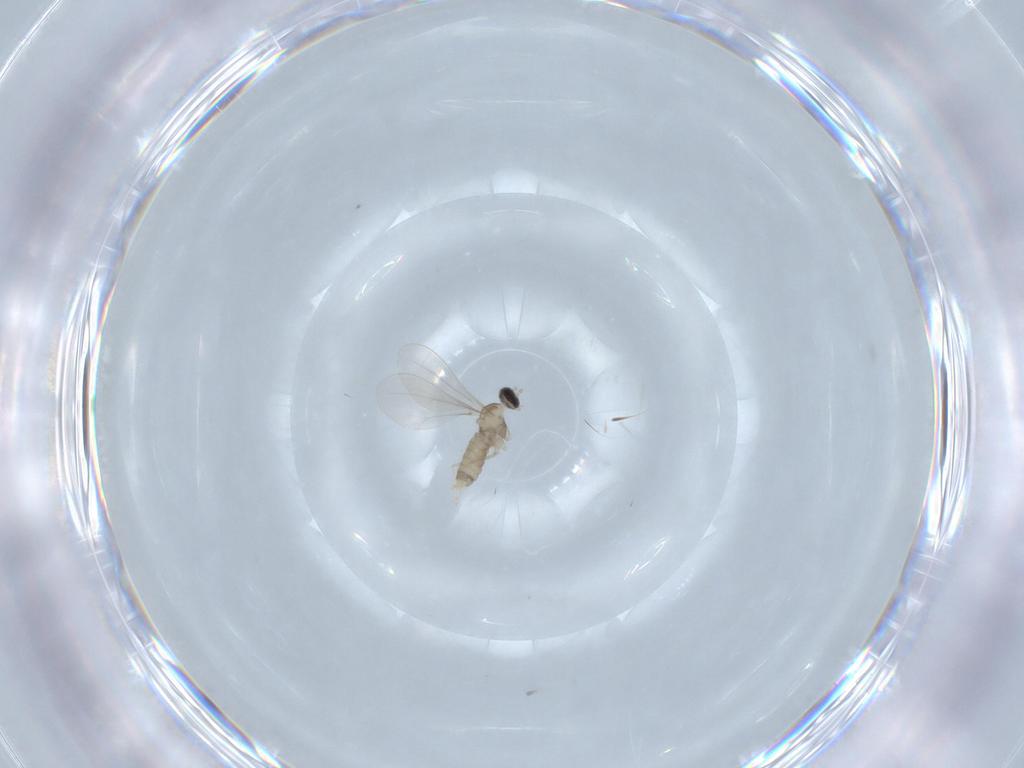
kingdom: Animalia
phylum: Arthropoda
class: Insecta
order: Diptera
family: Cecidomyiidae
